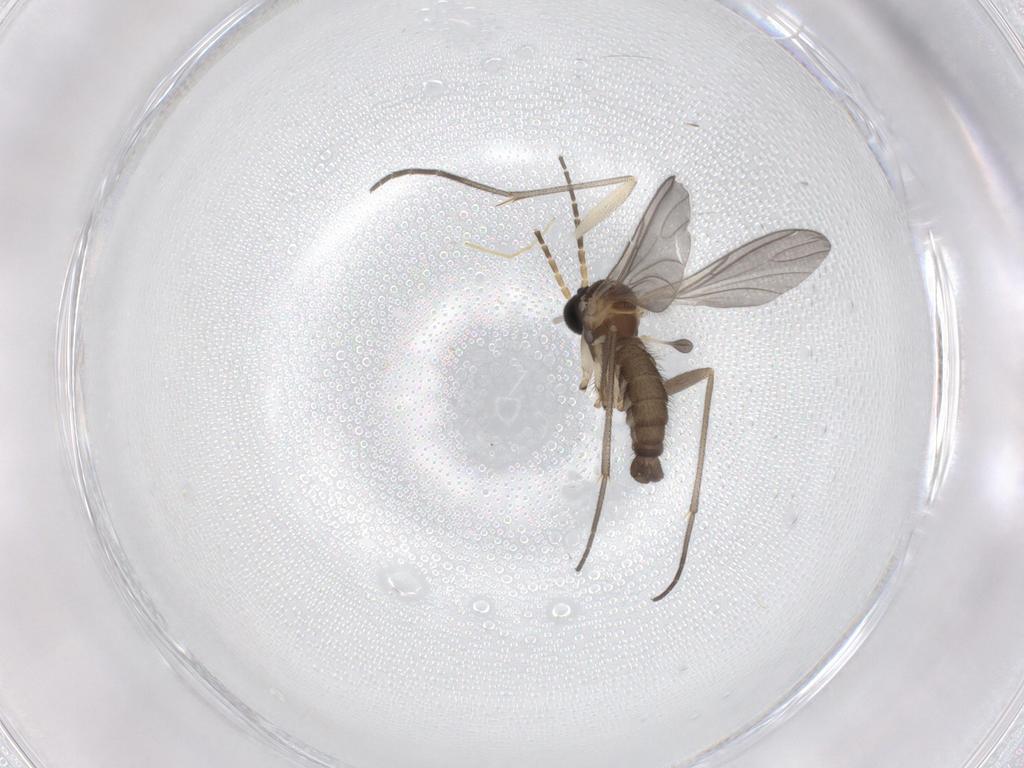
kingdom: Animalia
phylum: Arthropoda
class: Insecta
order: Diptera
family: Sciaridae
